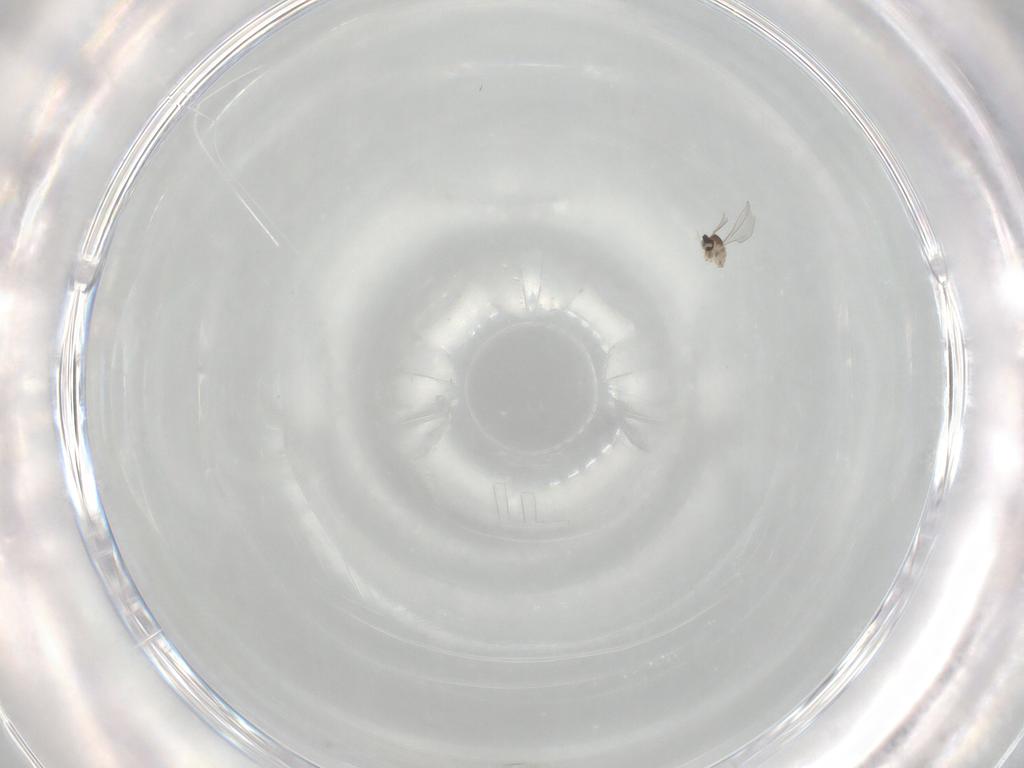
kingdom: Animalia
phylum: Arthropoda
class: Insecta
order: Diptera
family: Cecidomyiidae
